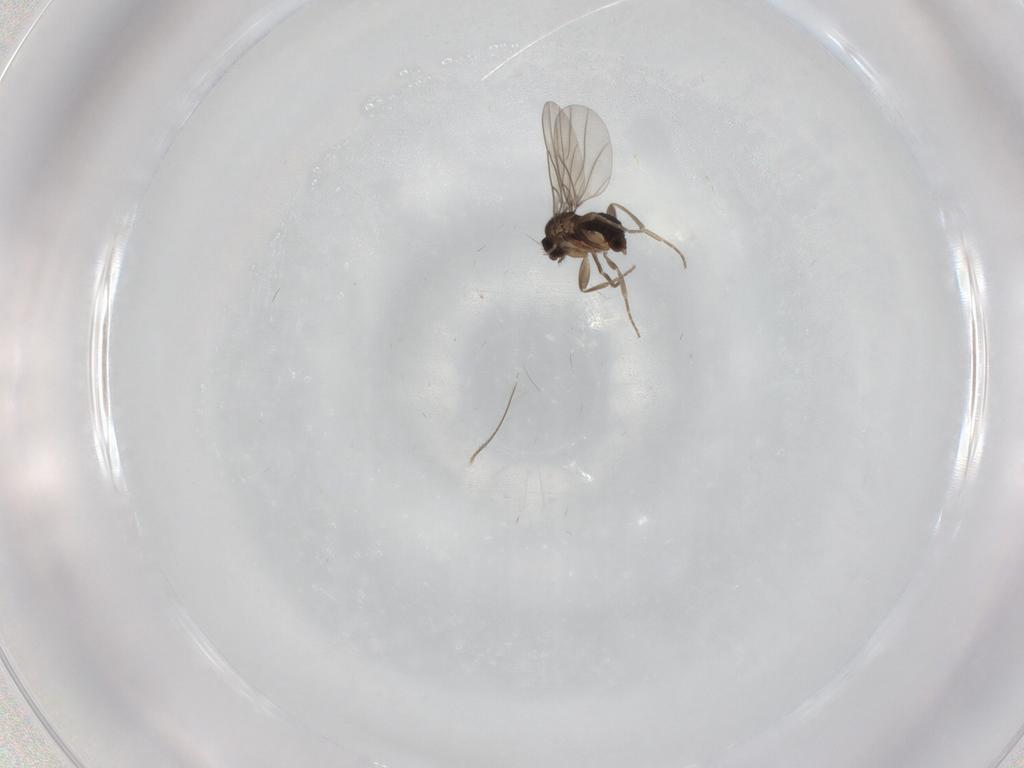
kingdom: Animalia
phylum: Arthropoda
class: Insecta
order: Diptera
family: Phoridae
